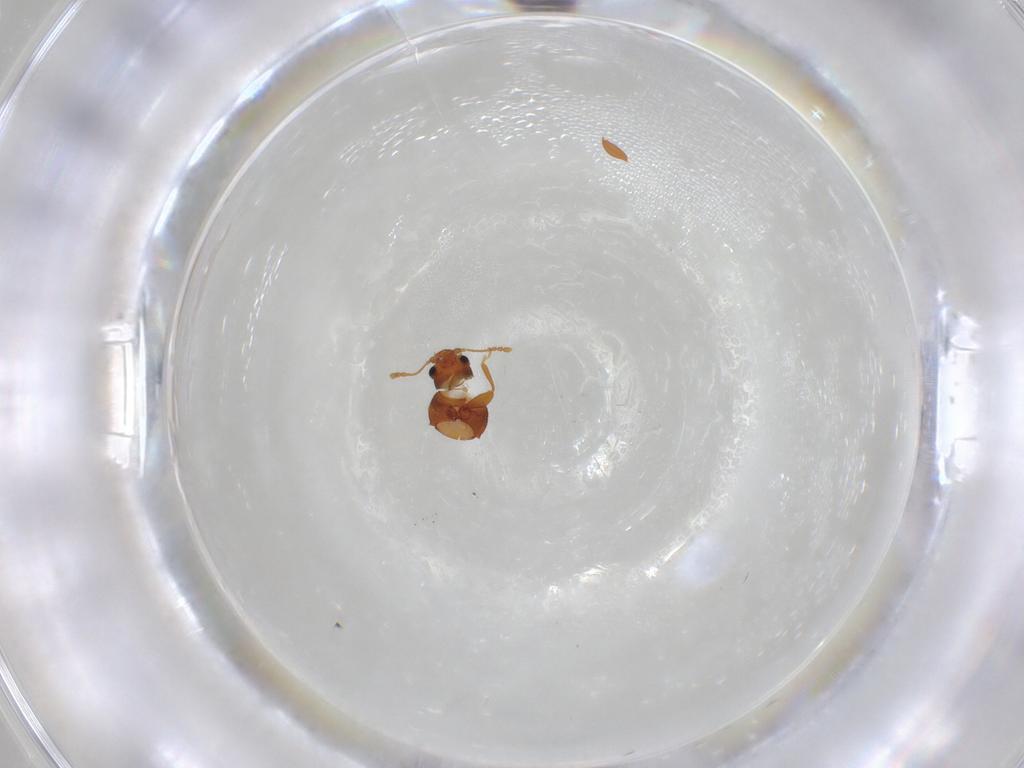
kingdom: Animalia
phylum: Arthropoda
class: Insecta
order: Coleoptera
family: Latridiidae
